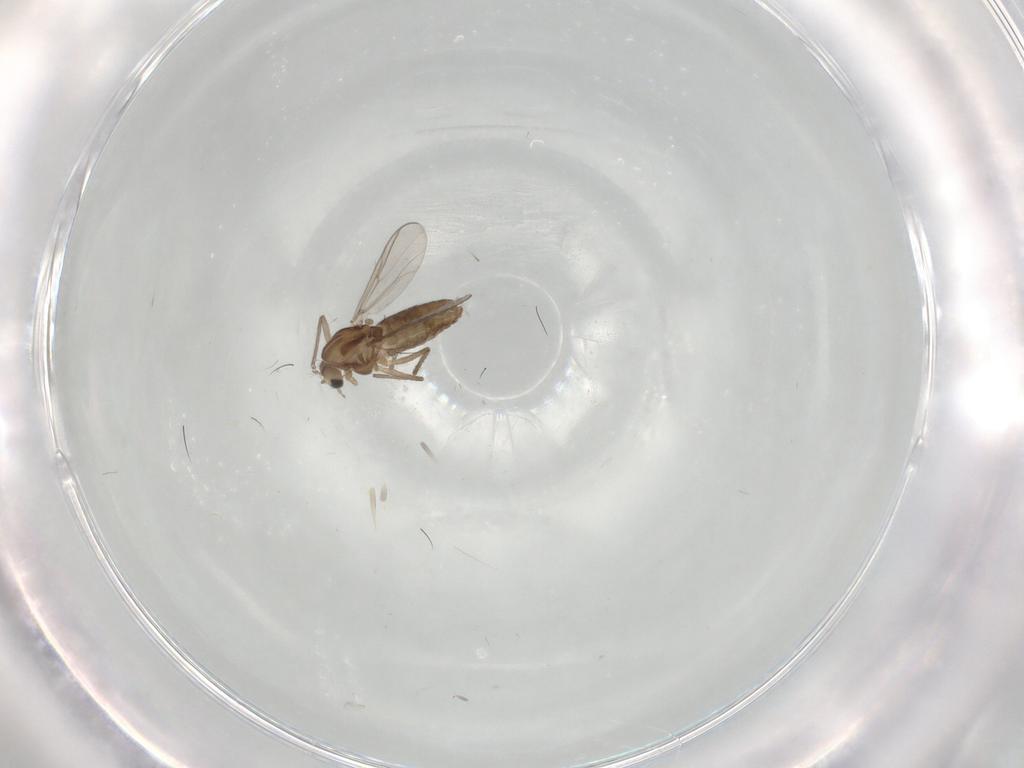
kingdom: Animalia
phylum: Arthropoda
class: Insecta
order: Diptera
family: Chironomidae
